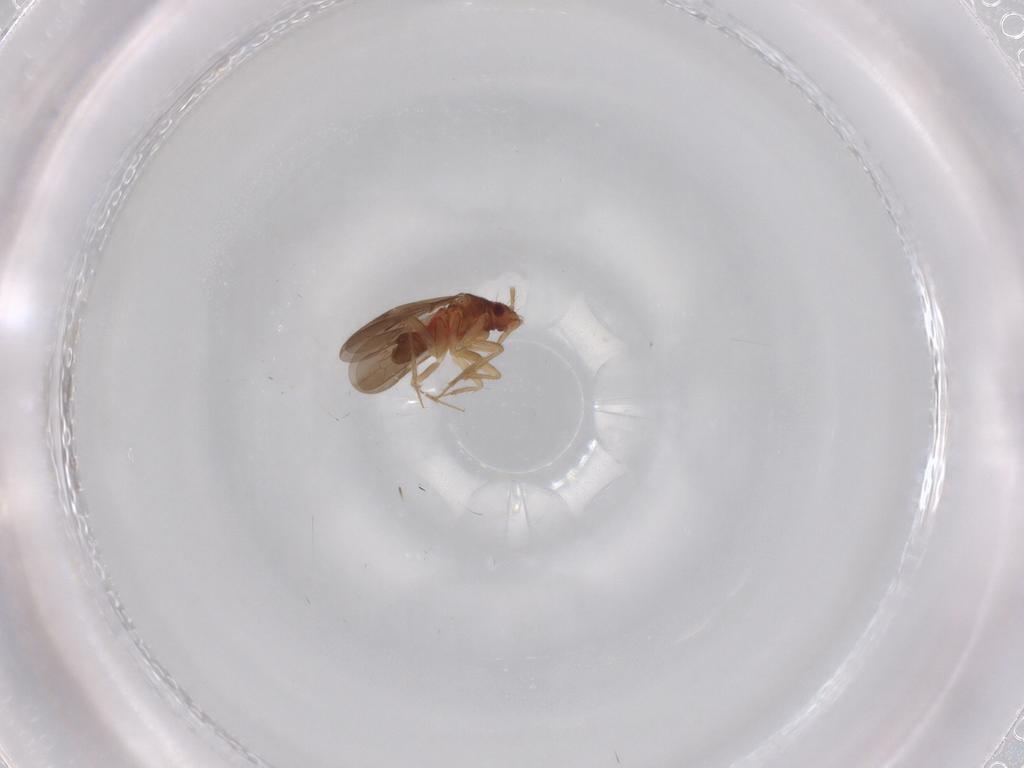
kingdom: Animalia
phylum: Arthropoda
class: Insecta
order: Hemiptera
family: Ceratocombidae
